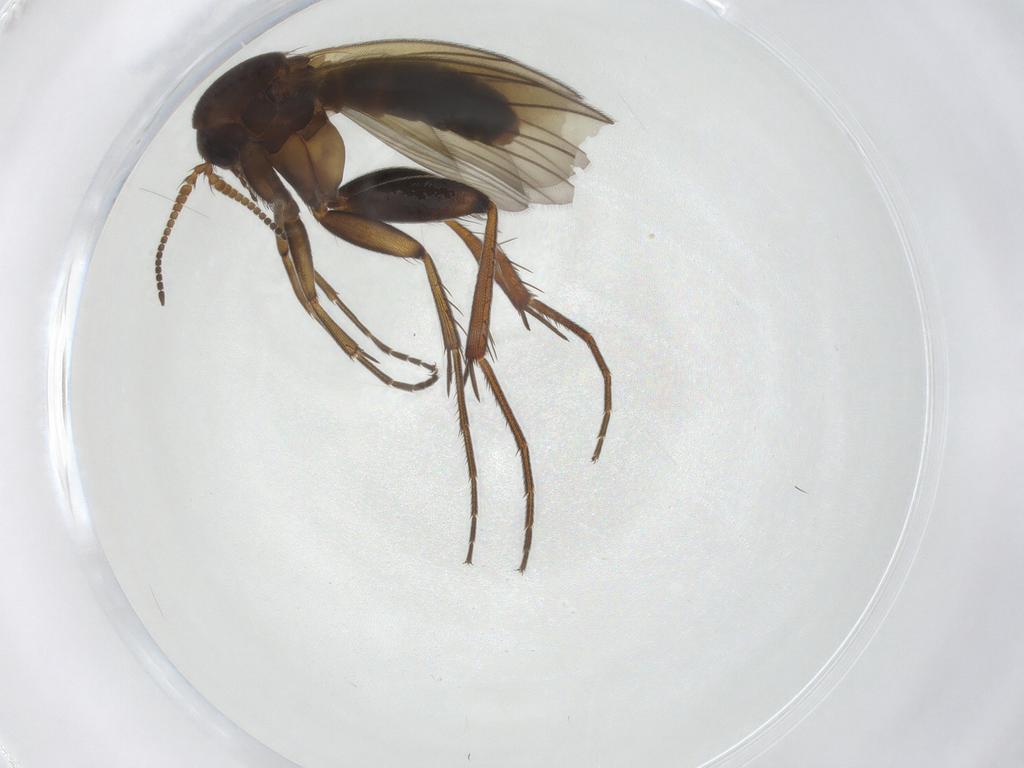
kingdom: Animalia
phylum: Arthropoda
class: Insecta
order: Diptera
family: Mycetophilidae
